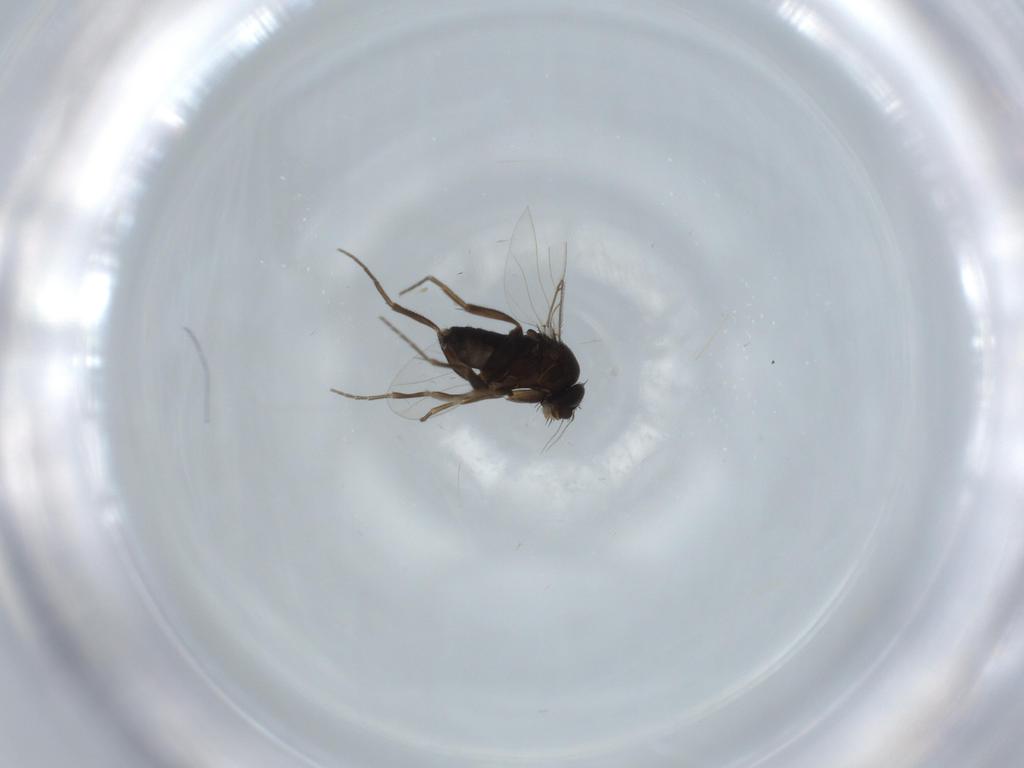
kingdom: Animalia
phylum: Arthropoda
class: Insecta
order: Diptera
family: Phoridae
